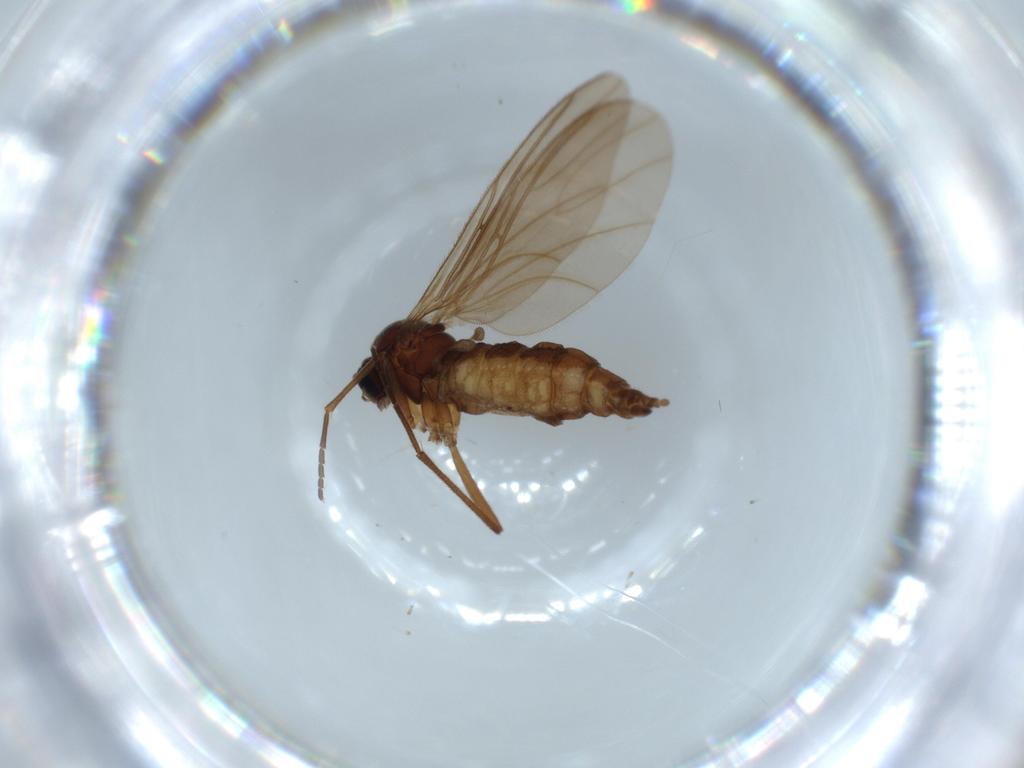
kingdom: Animalia
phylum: Arthropoda
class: Insecta
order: Diptera
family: Sciaridae
